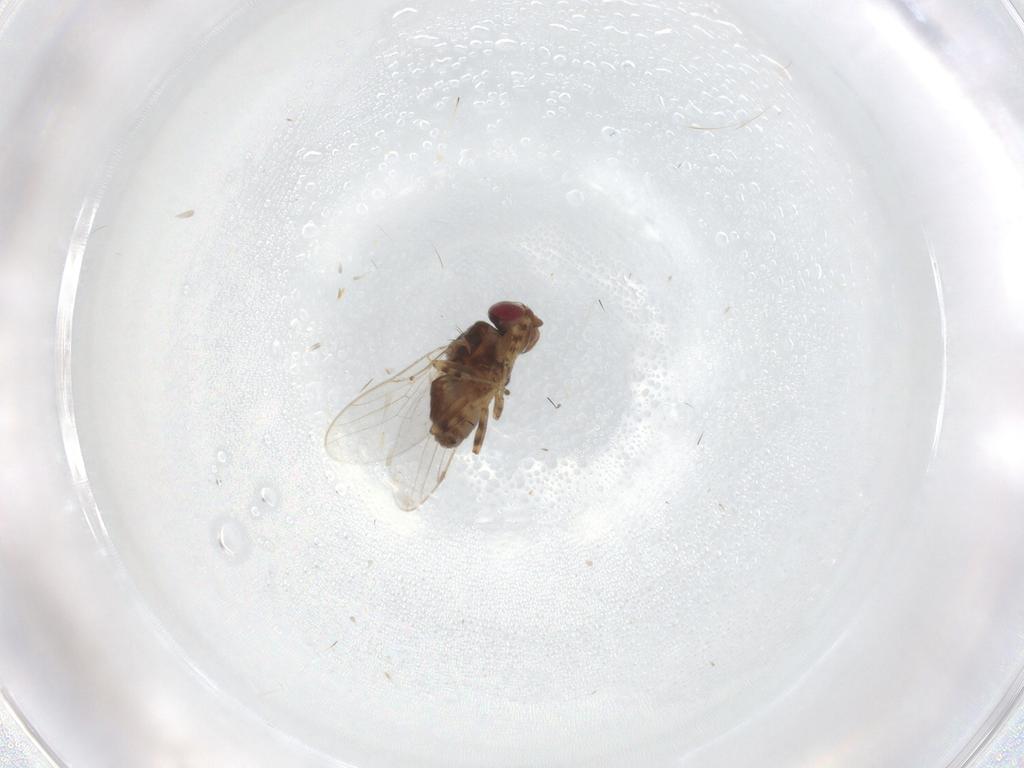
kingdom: Animalia
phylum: Arthropoda
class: Insecta
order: Diptera
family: Chloropidae
